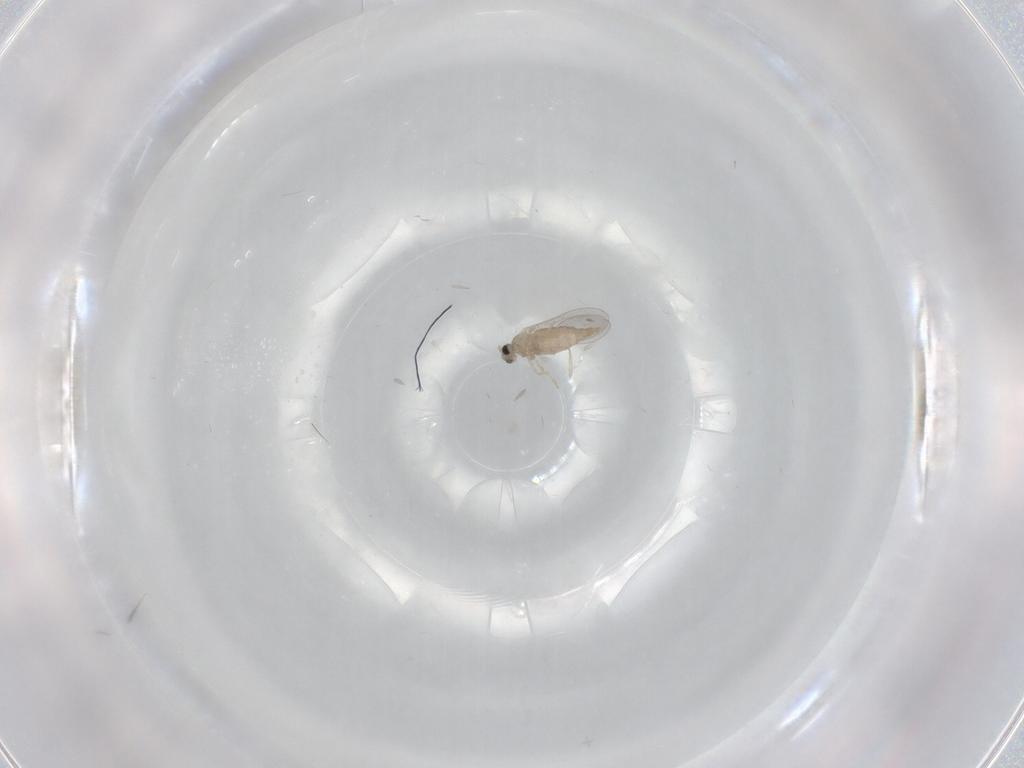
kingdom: Animalia
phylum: Arthropoda
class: Insecta
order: Diptera
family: Cecidomyiidae
